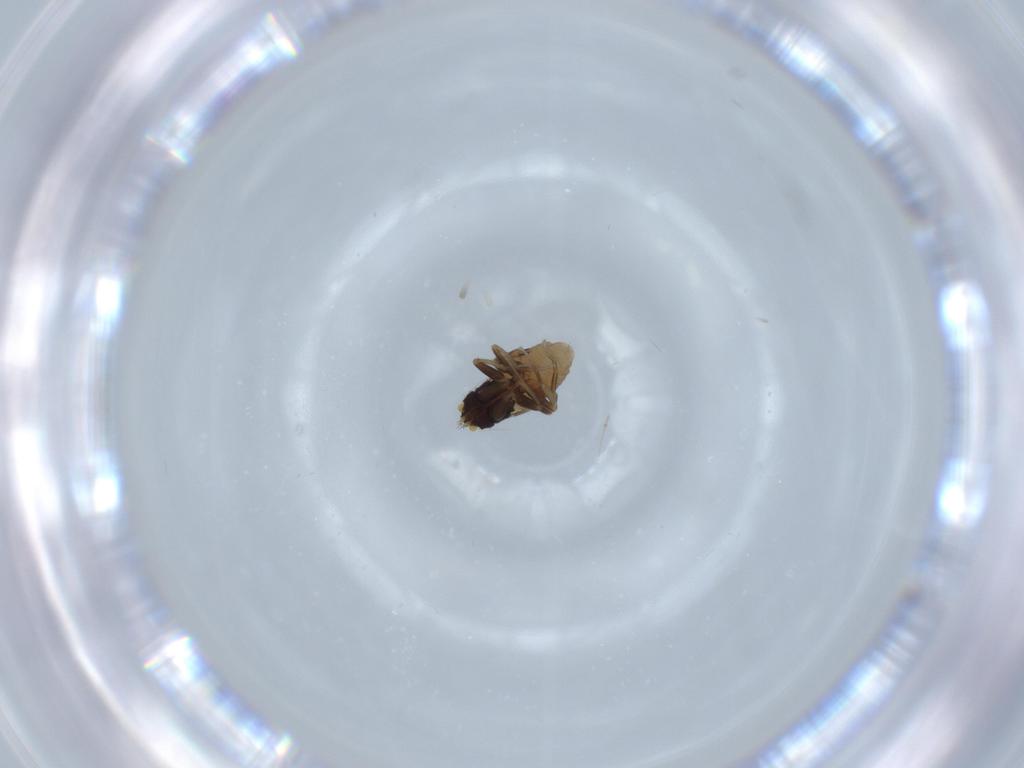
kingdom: Animalia
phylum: Arthropoda
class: Insecta
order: Diptera
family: Phoridae
